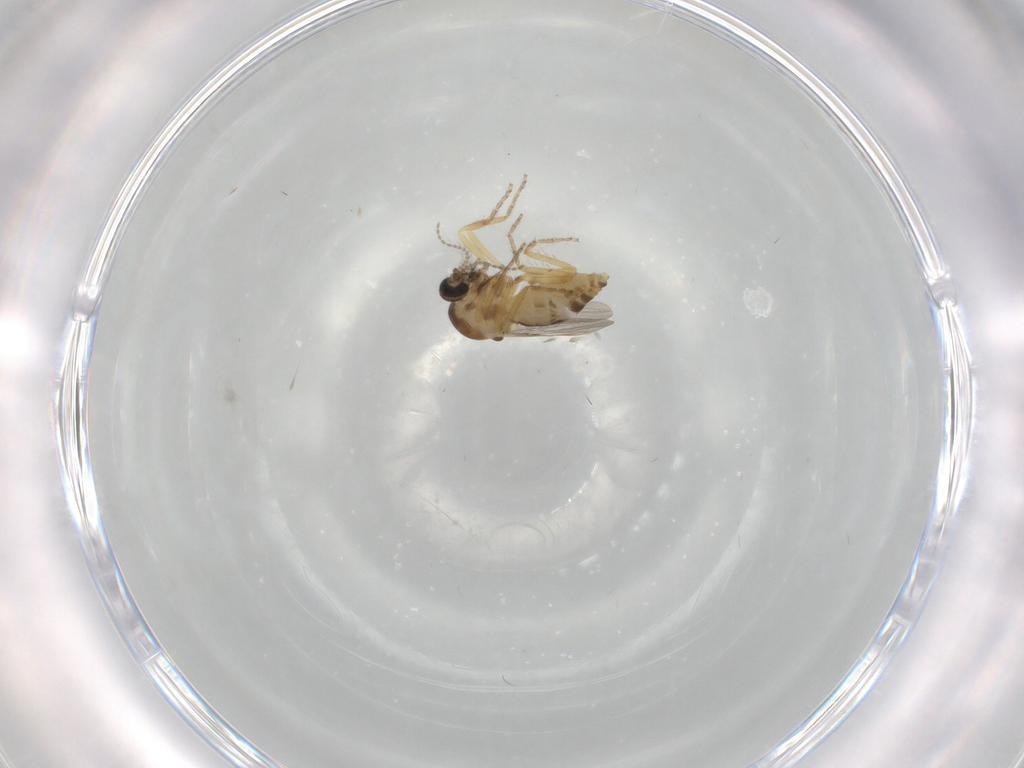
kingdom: Animalia
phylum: Arthropoda
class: Insecta
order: Diptera
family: Ceratopogonidae
